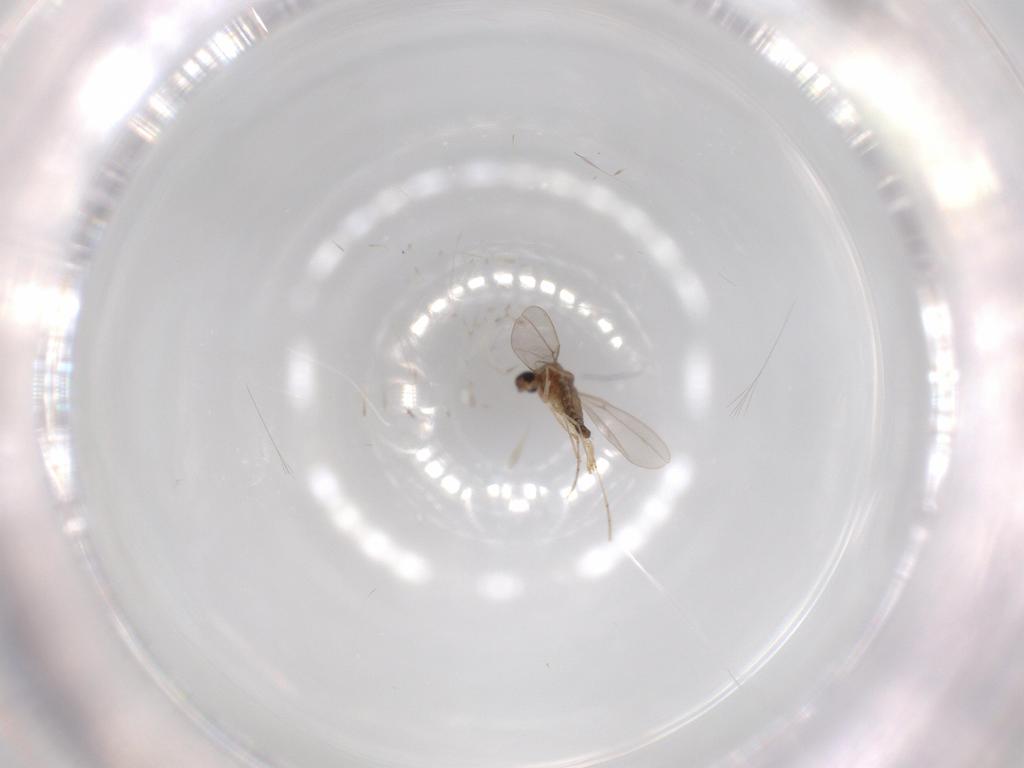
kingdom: Animalia
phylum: Arthropoda
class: Insecta
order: Diptera
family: Cecidomyiidae
